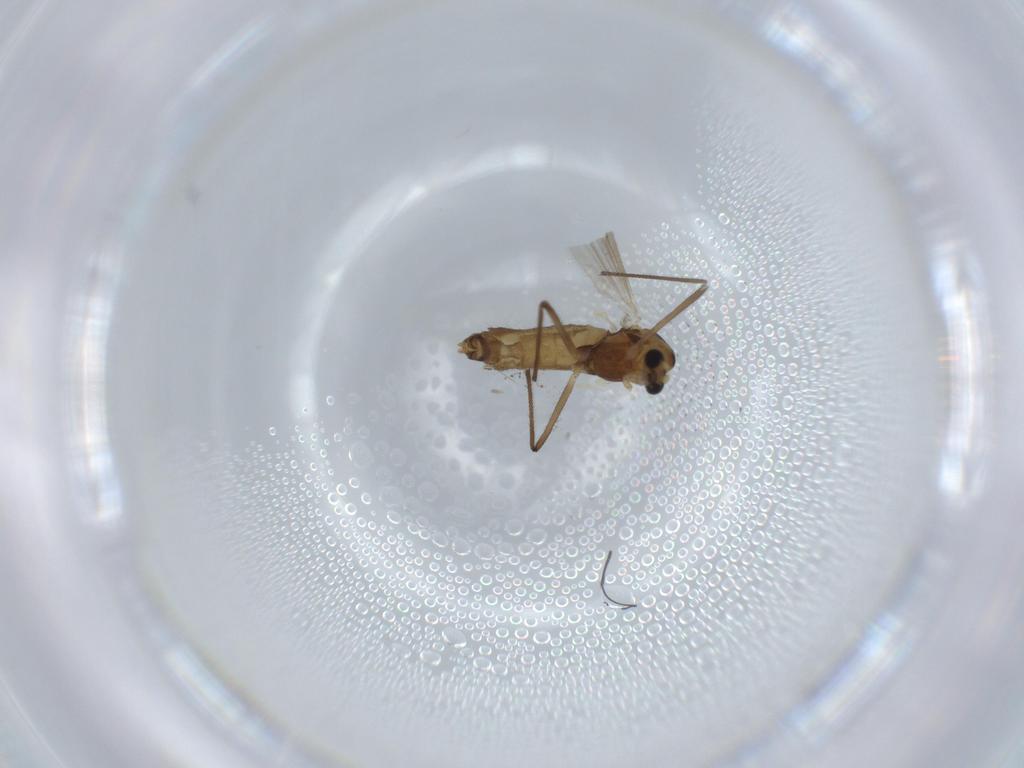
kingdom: Animalia
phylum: Arthropoda
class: Insecta
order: Diptera
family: Chironomidae
